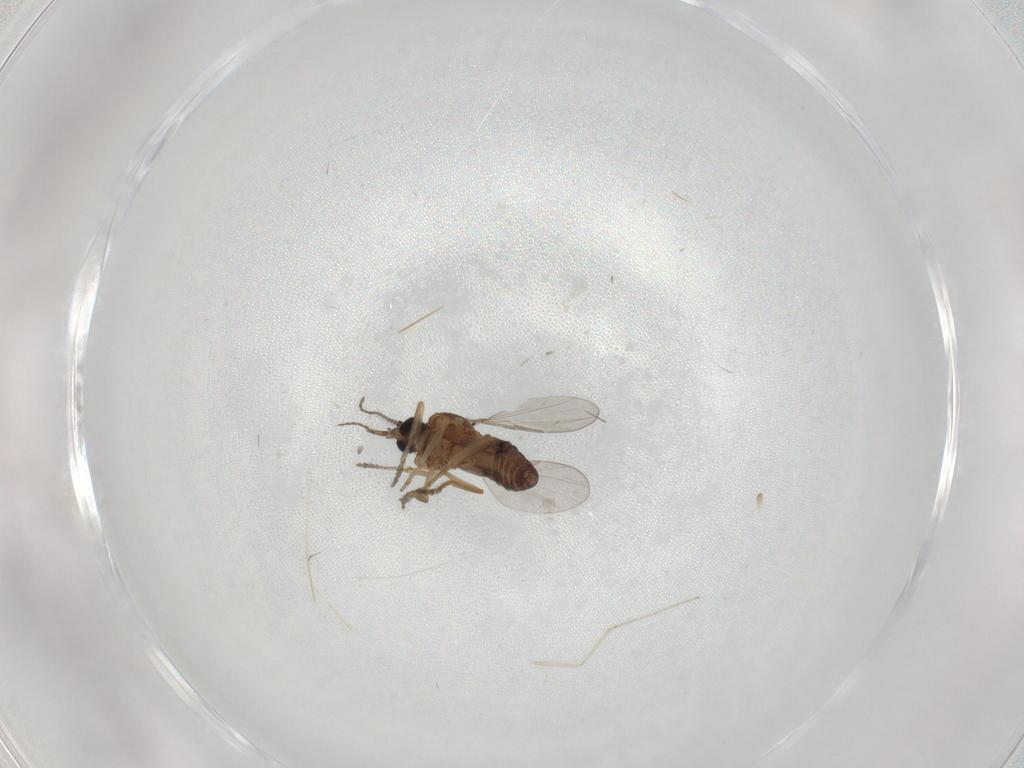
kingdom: Animalia
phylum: Arthropoda
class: Insecta
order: Diptera
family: Ceratopogonidae
